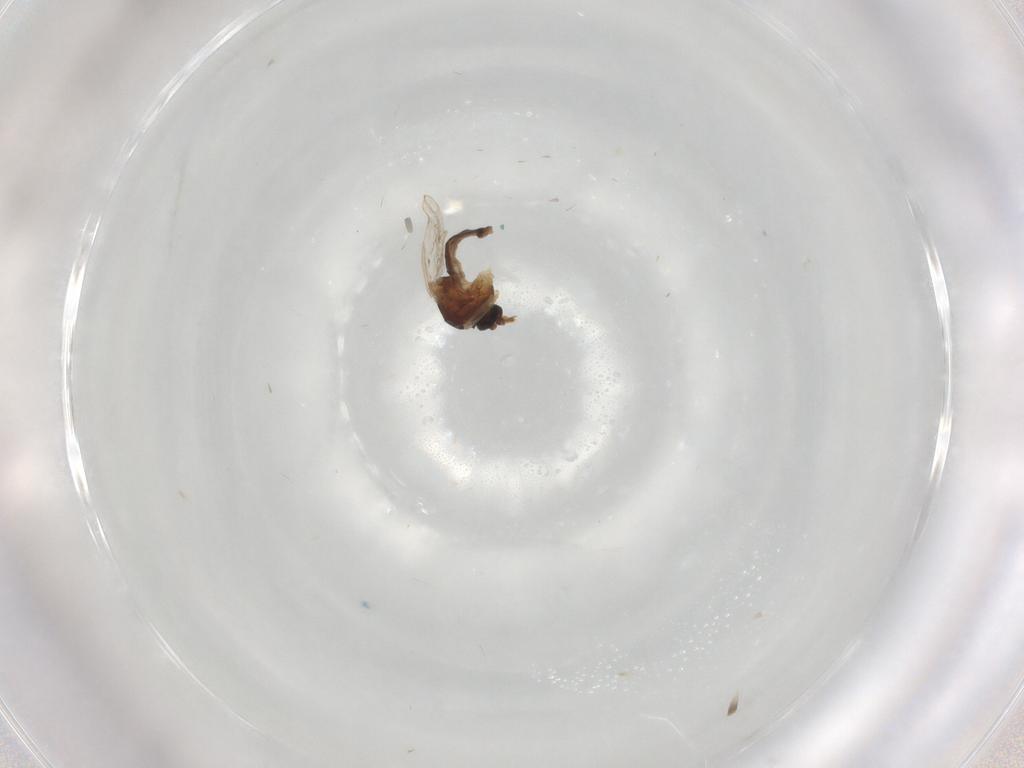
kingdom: Animalia
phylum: Arthropoda
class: Insecta
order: Diptera
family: Ceratopogonidae
